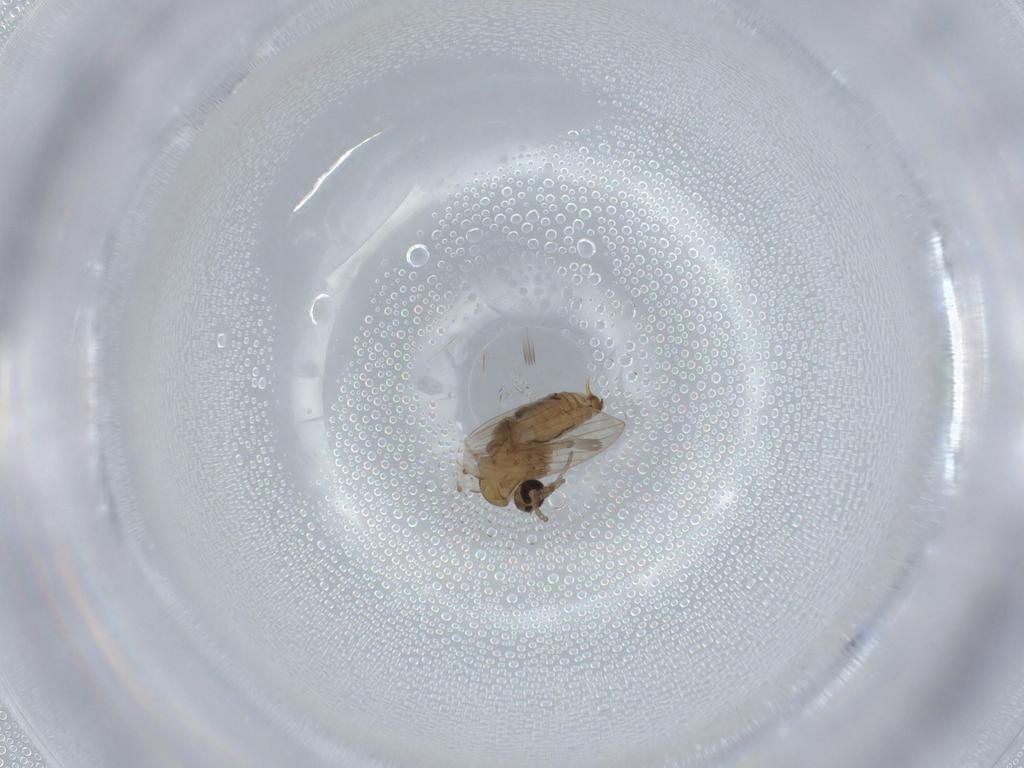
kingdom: Animalia
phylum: Arthropoda
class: Insecta
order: Diptera
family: Psychodidae
